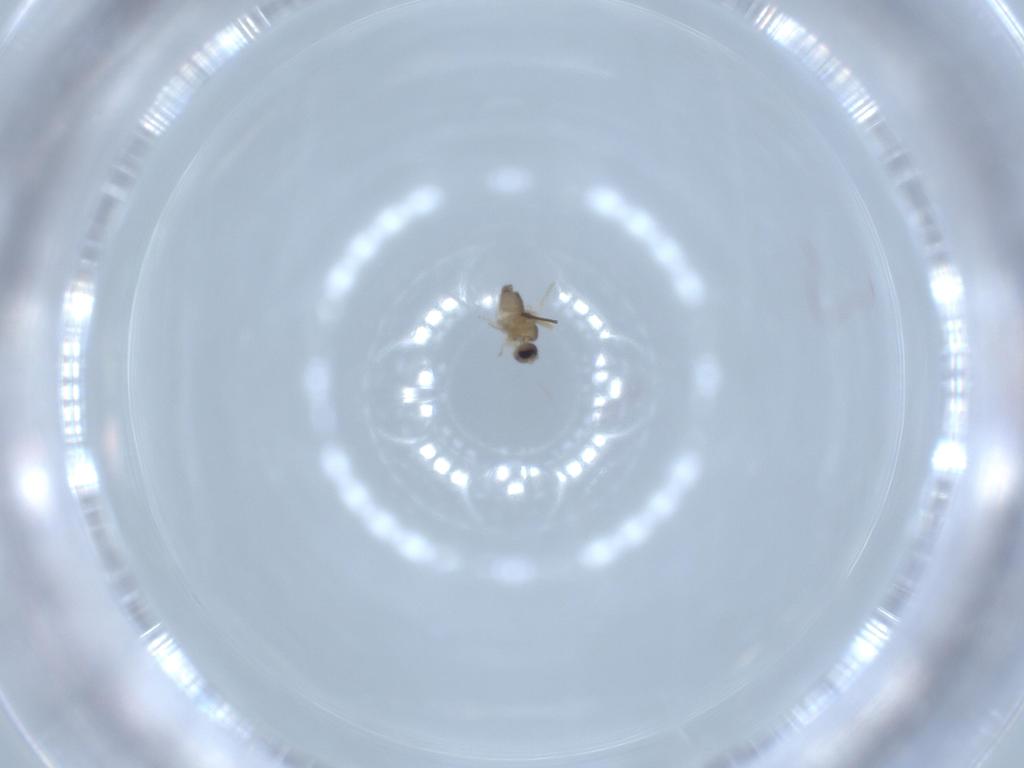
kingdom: Animalia
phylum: Arthropoda
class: Insecta
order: Diptera
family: Cecidomyiidae
